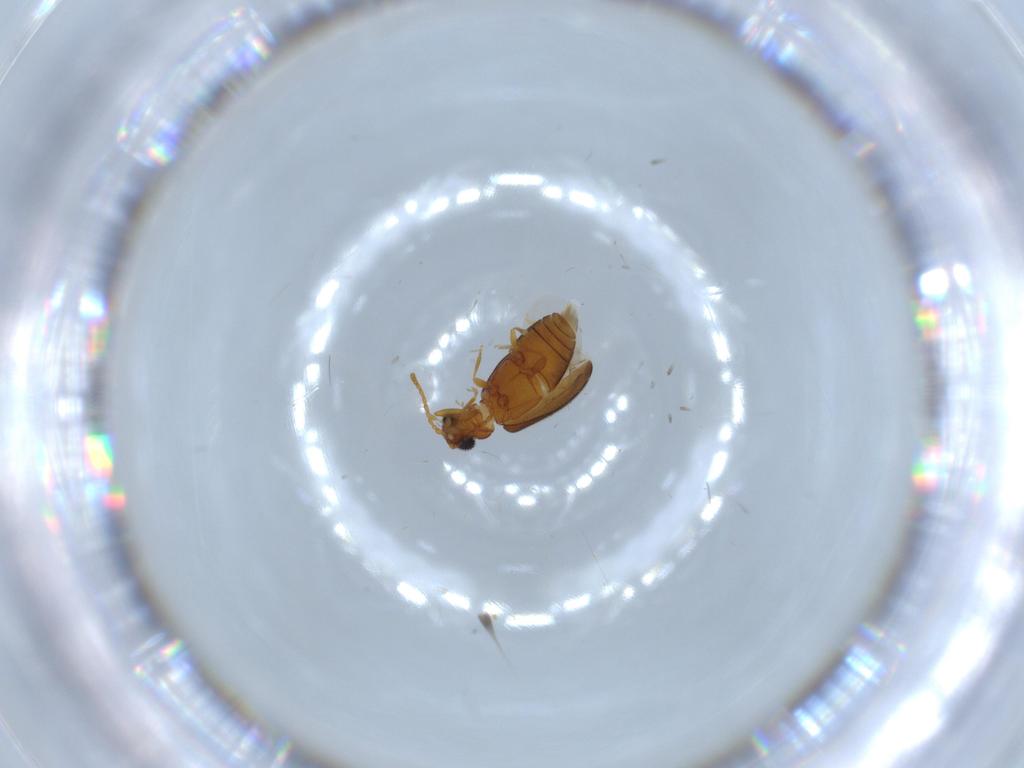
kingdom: Animalia
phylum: Arthropoda
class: Insecta
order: Coleoptera
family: Aderidae
